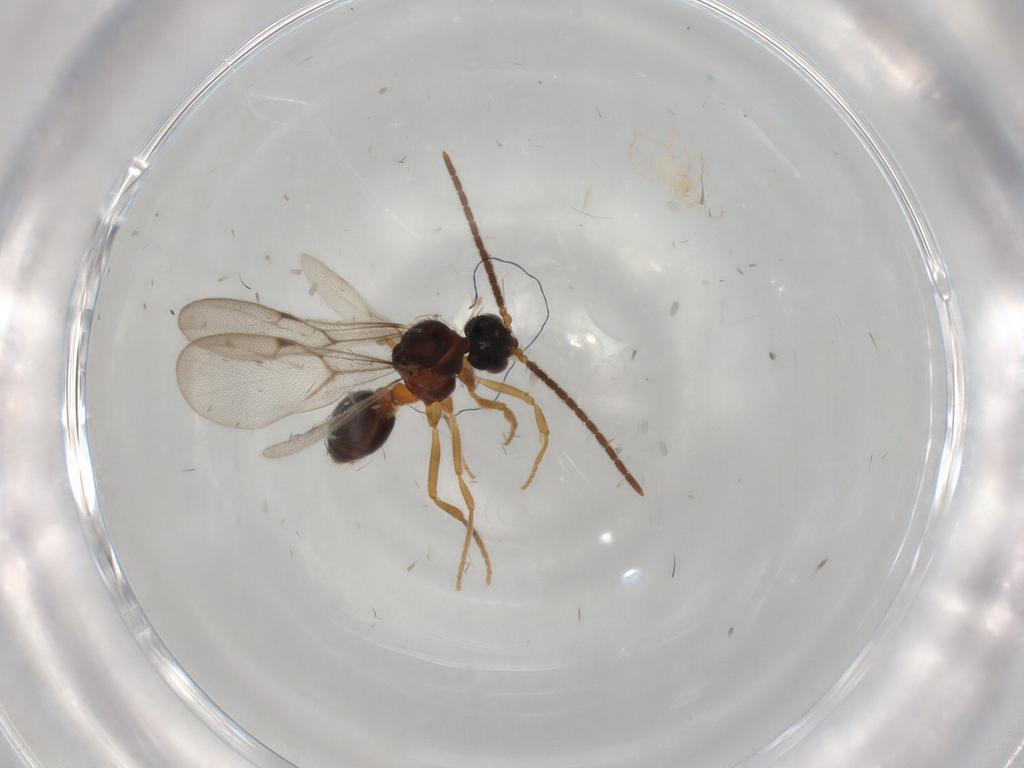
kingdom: Animalia
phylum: Arthropoda
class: Insecta
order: Hymenoptera
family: Formicidae
